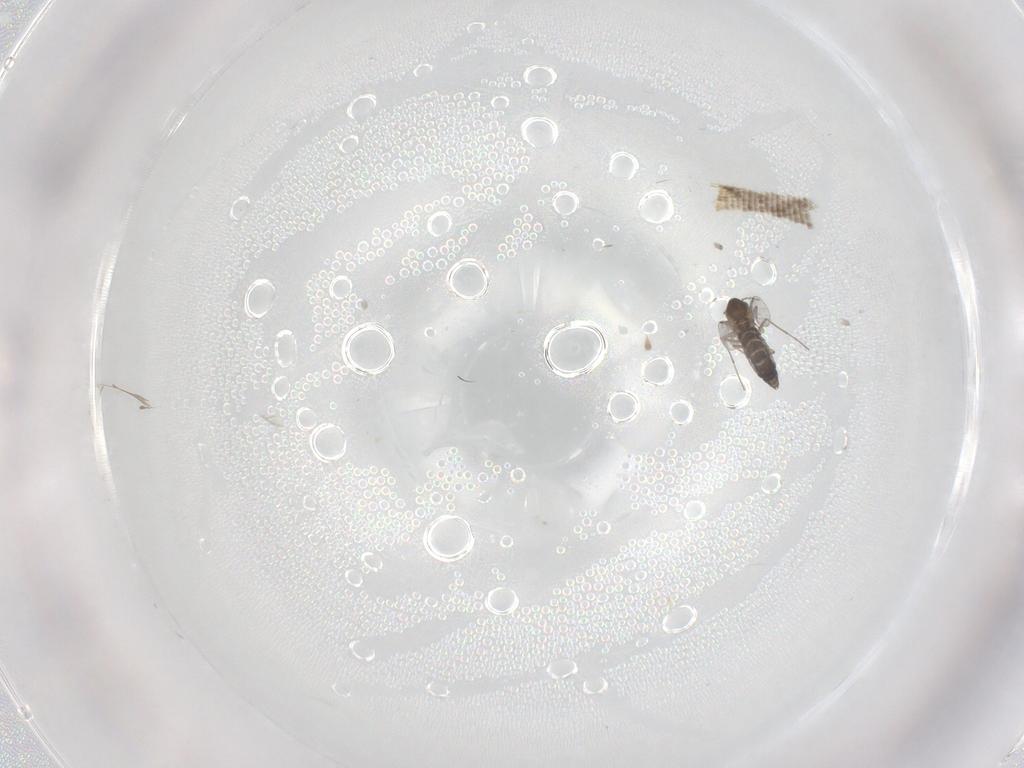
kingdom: Animalia
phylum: Arthropoda
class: Insecta
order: Diptera
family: Chironomidae
